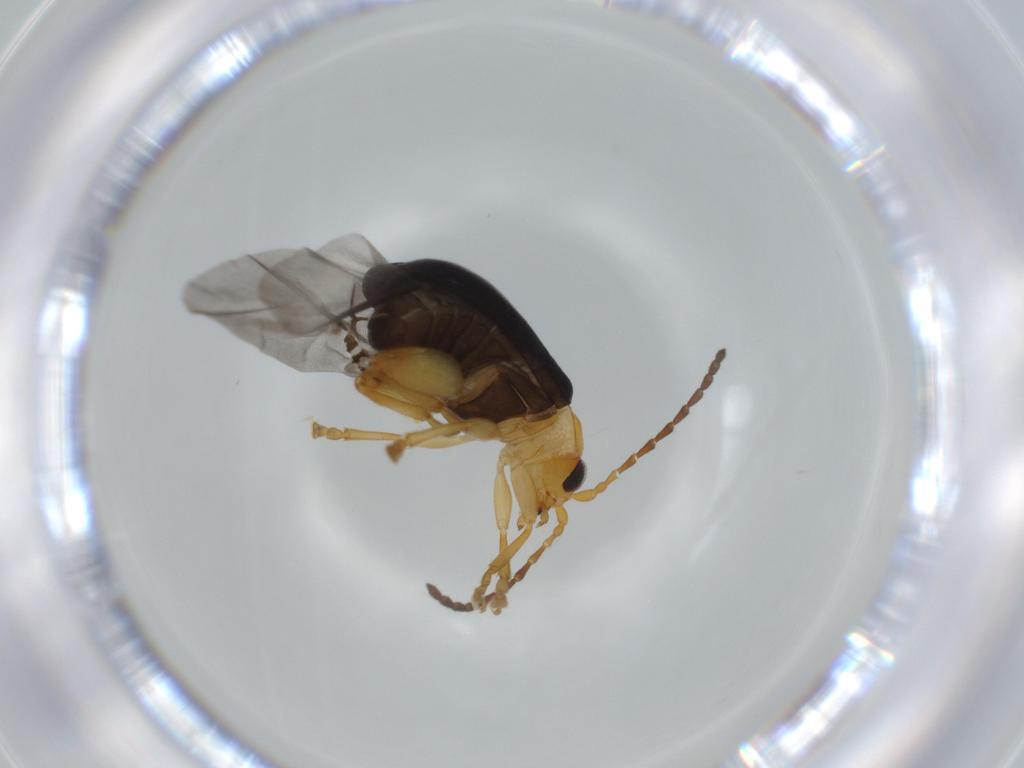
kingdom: Animalia
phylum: Arthropoda
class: Insecta
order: Coleoptera
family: Chrysomelidae
